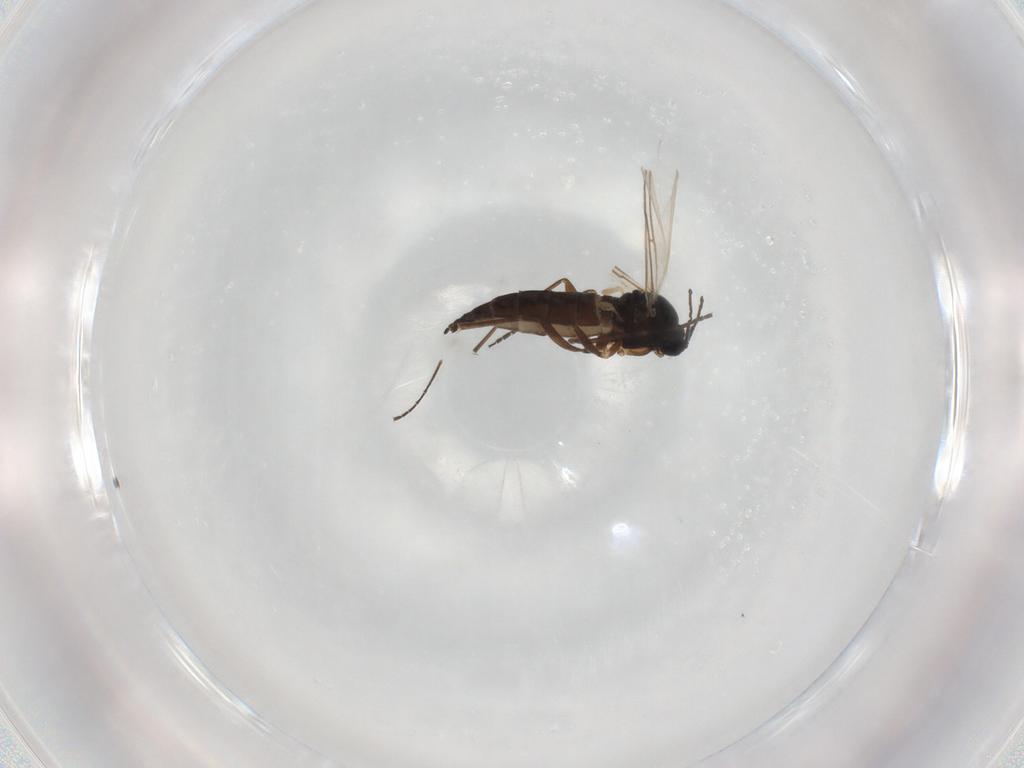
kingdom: Animalia
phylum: Arthropoda
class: Insecta
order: Diptera
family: Sciaridae
